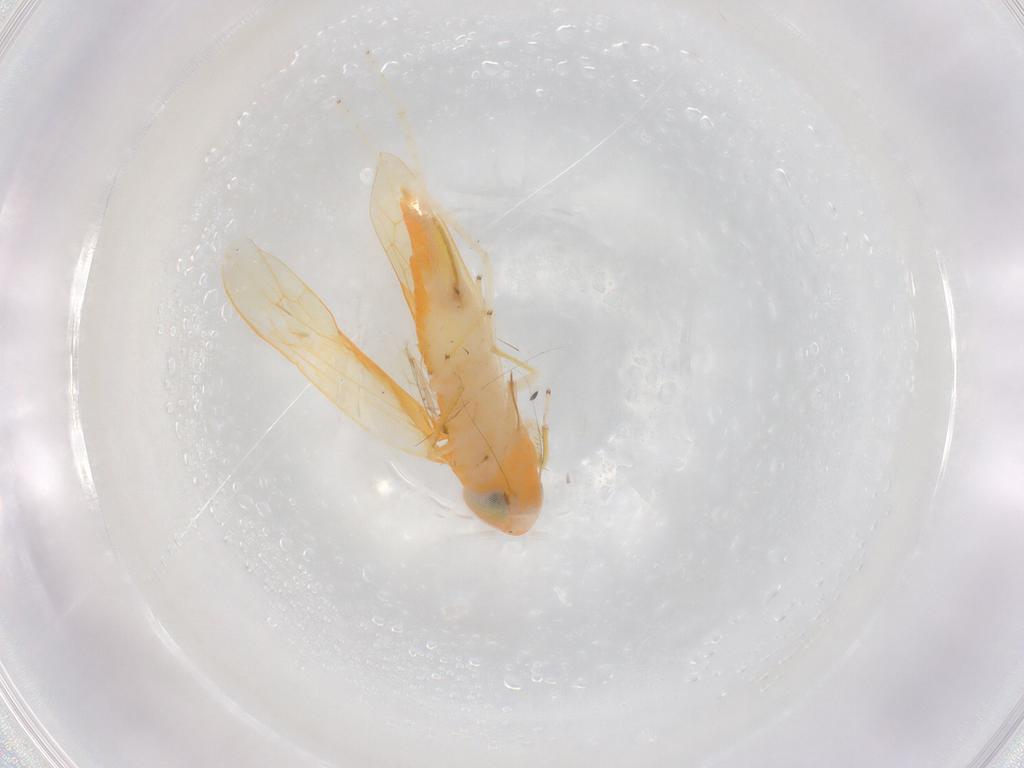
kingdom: Animalia
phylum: Arthropoda
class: Insecta
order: Hemiptera
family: Cicadellidae
